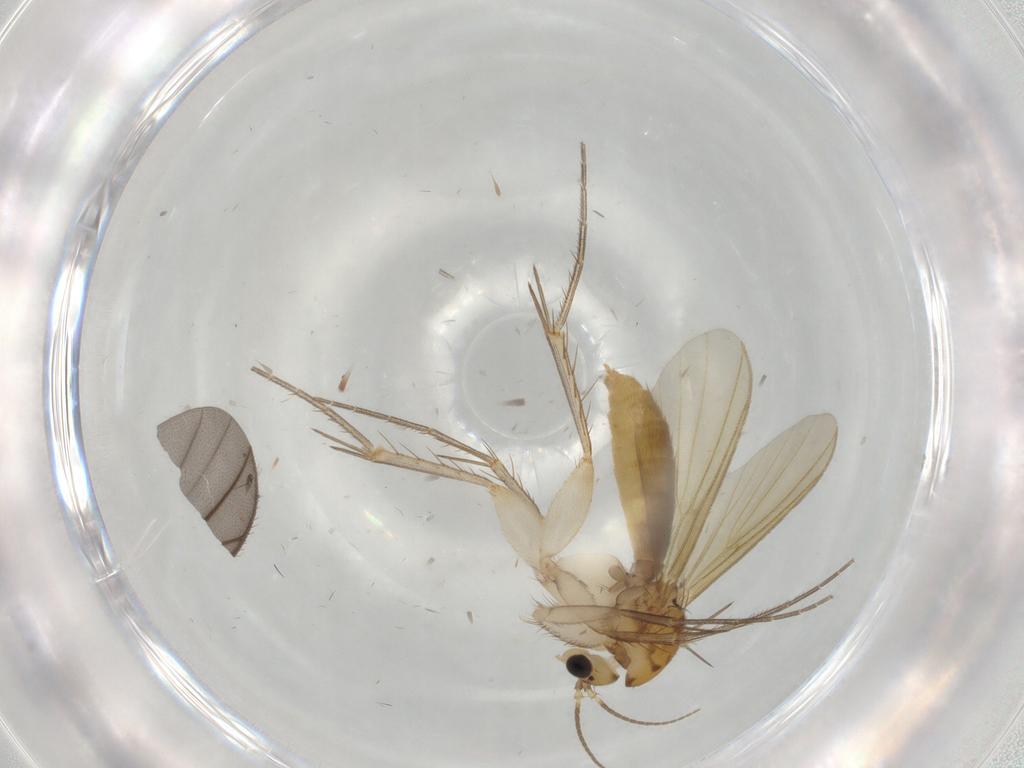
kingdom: Animalia
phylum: Arthropoda
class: Insecta
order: Diptera
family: Mycetophilidae
